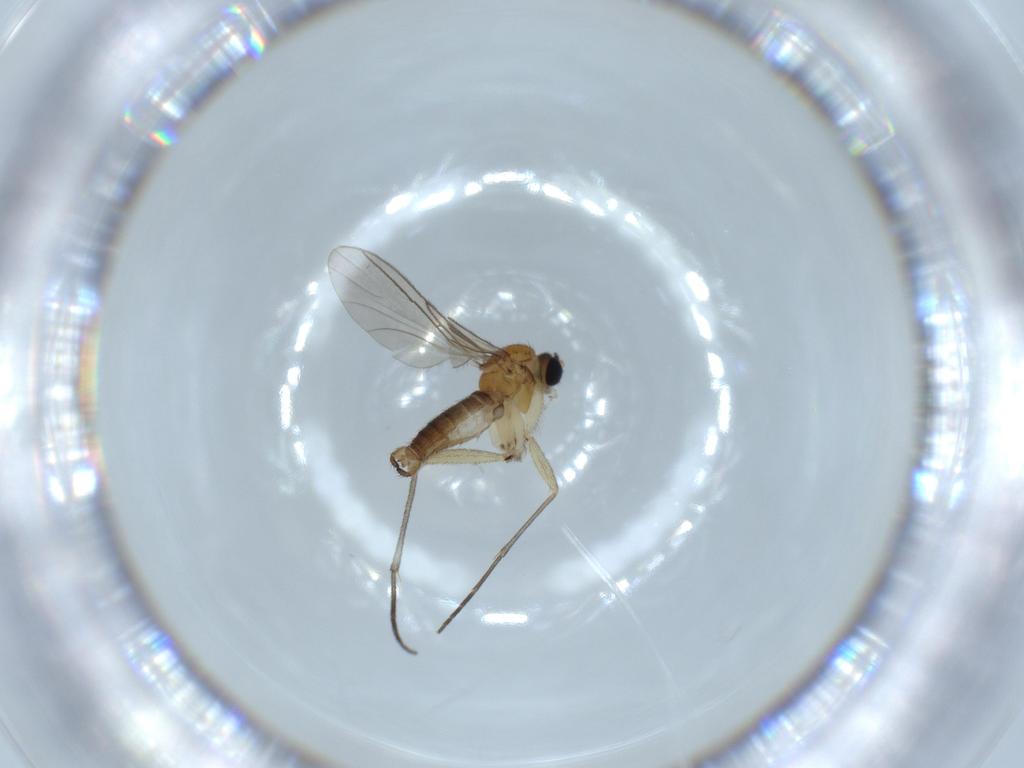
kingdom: Animalia
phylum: Arthropoda
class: Insecta
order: Diptera
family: Sciaridae
